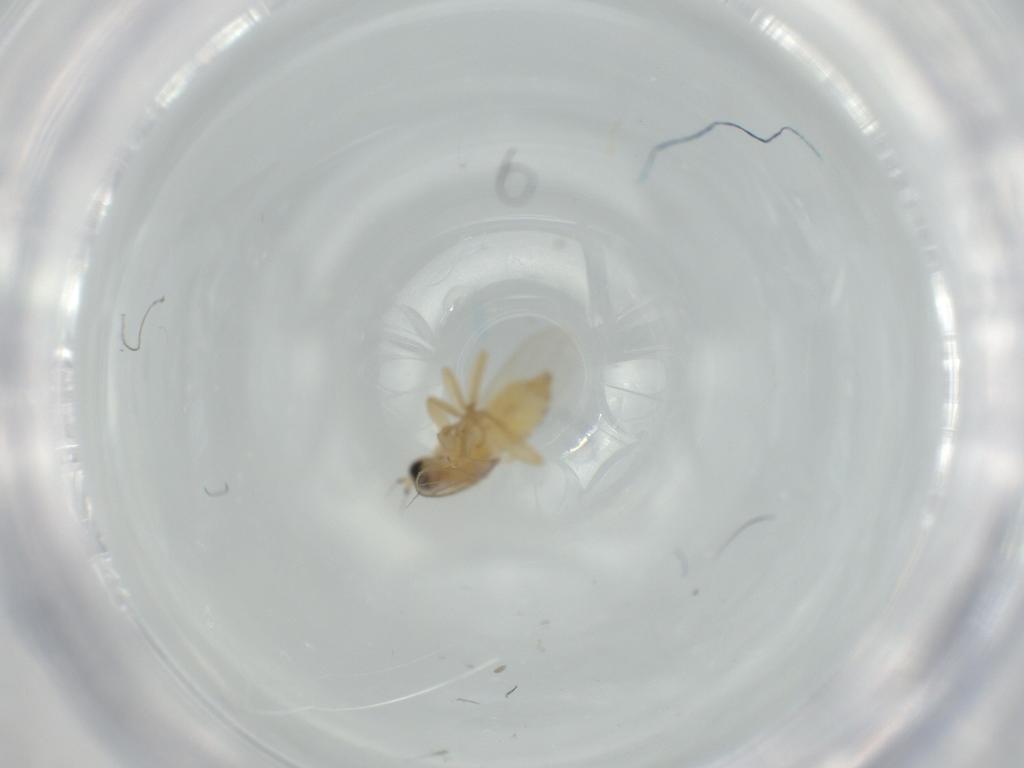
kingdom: Animalia
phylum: Arthropoda
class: Insecta
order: Diptera
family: Hybotidae
